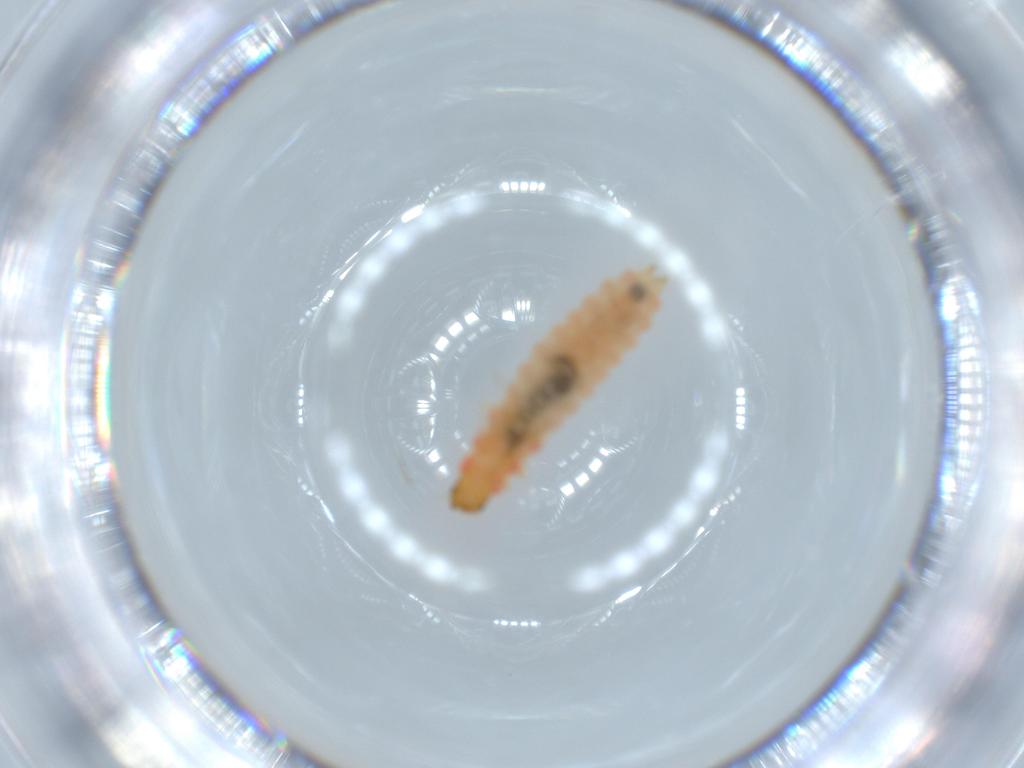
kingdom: Animalia
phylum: Arthropoda
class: Insecta
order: Coleoptera
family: Melyridae
